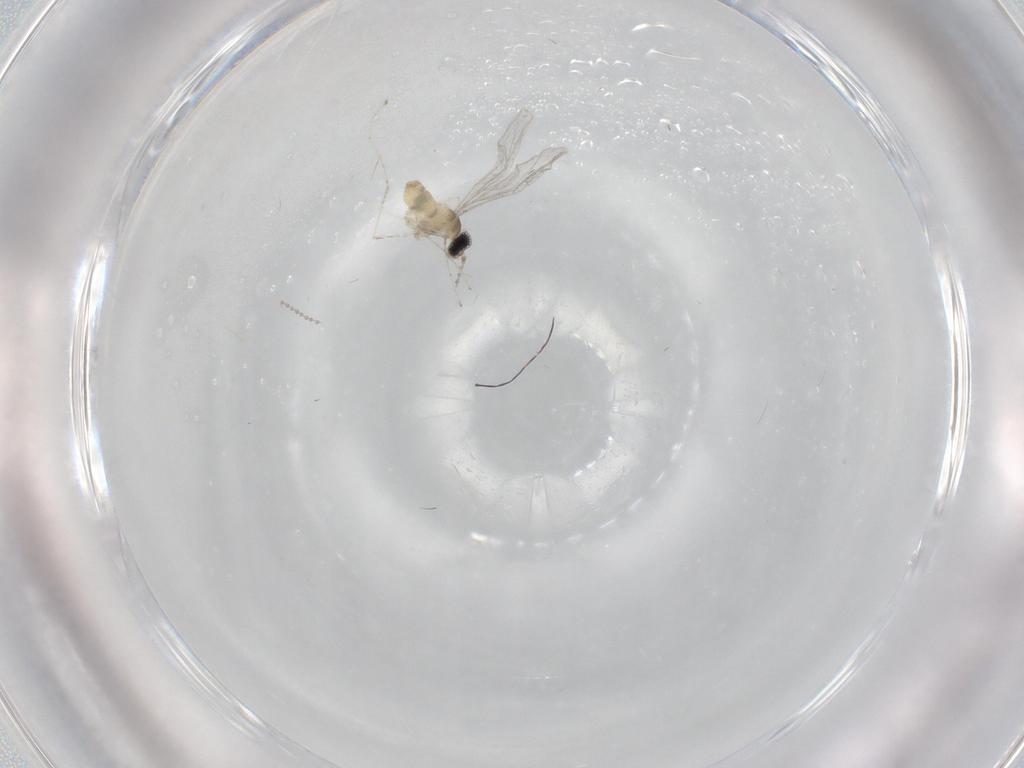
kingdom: Animalia
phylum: Arthropoda
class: Insecta
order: Diptera
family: Cecidomyiidae
